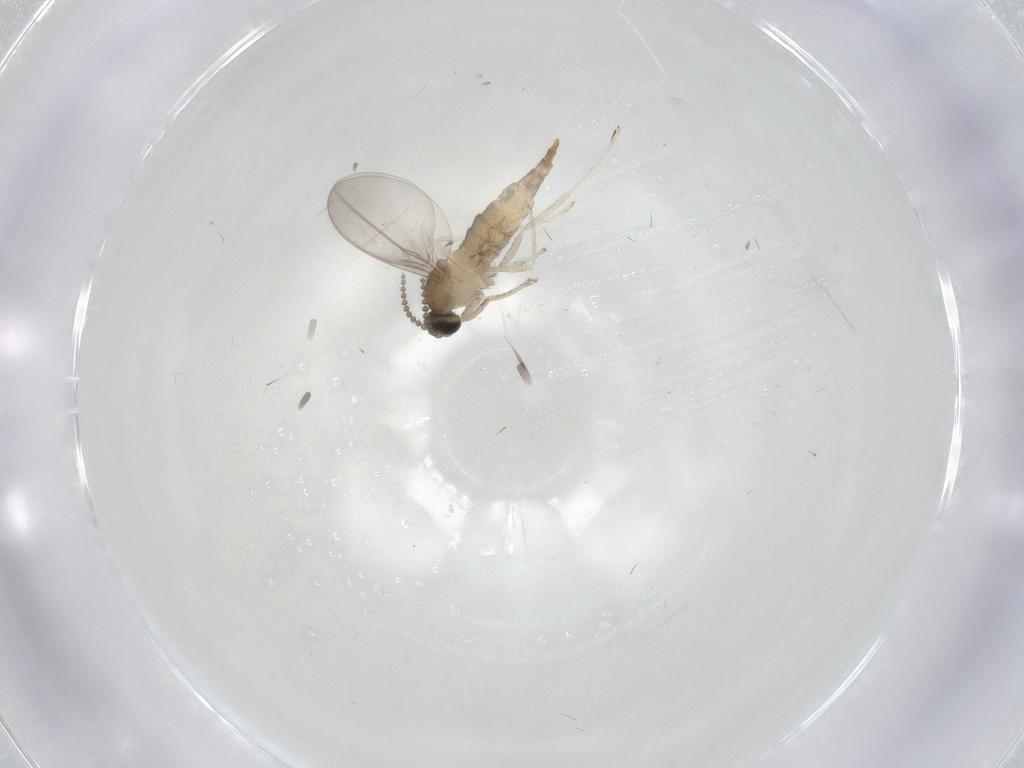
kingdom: Animalia
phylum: Arthropoda
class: Insecta
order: Diptera
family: Cecidomyiidae
